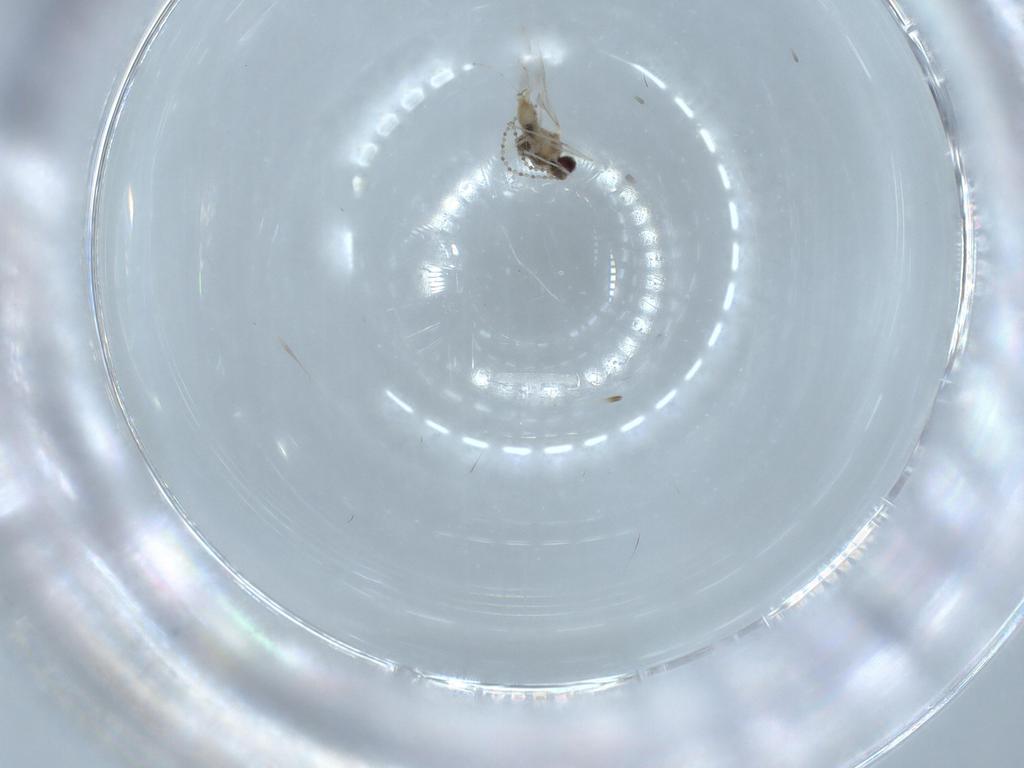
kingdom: Animalia
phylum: Arthropoda
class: Insecta
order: Diptera
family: Cecidomyiidae
